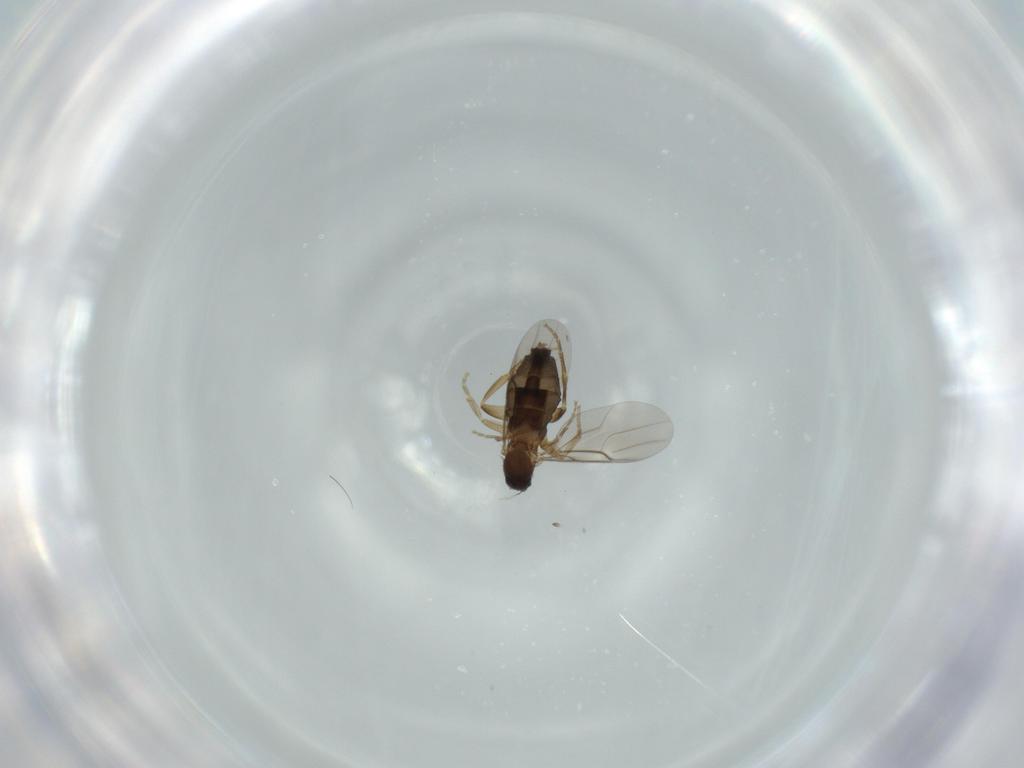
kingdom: Animalia
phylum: Arthropoda
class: Insecta
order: Diptera
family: Phoridae
